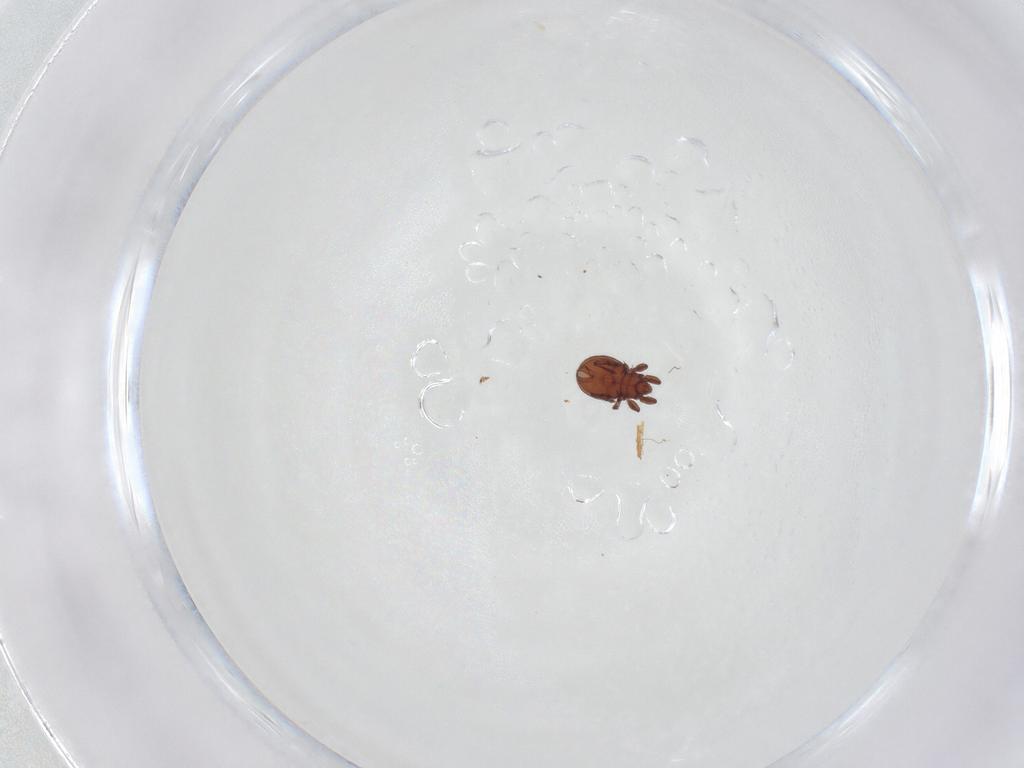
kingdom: Animalia
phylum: Arthropoda
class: Arachnida
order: Sarcoptiformes
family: Eremaeidae
